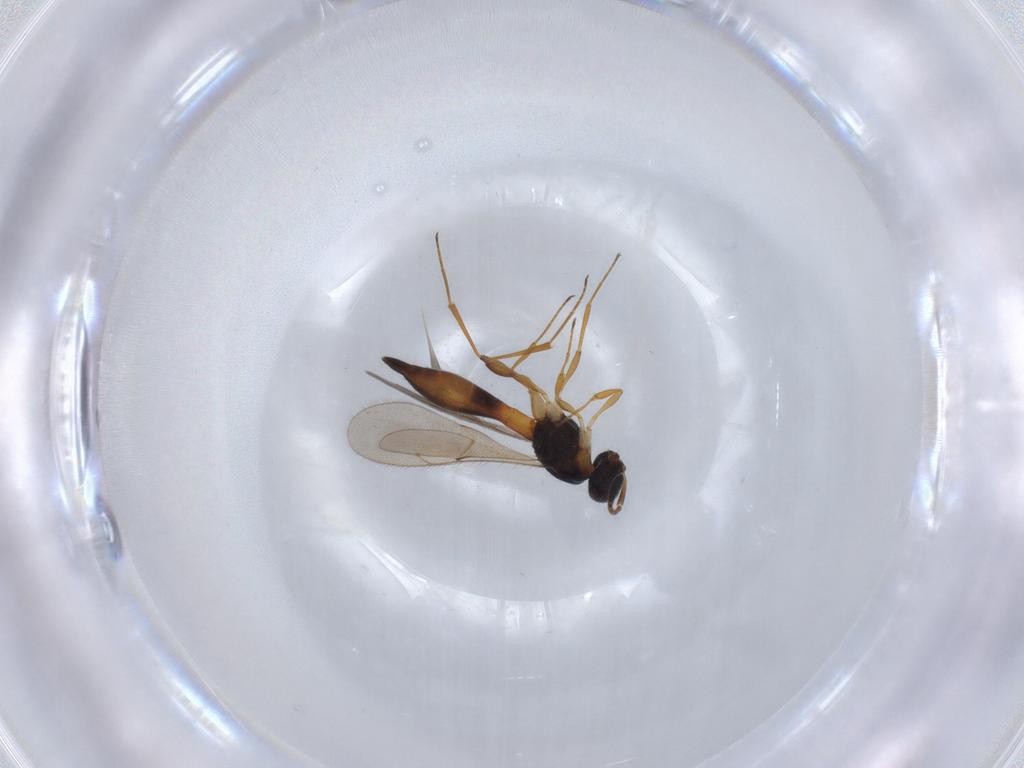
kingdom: Animalia
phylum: Arthropoda
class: Insecta
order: Hymenoptera
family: Scelionidae
